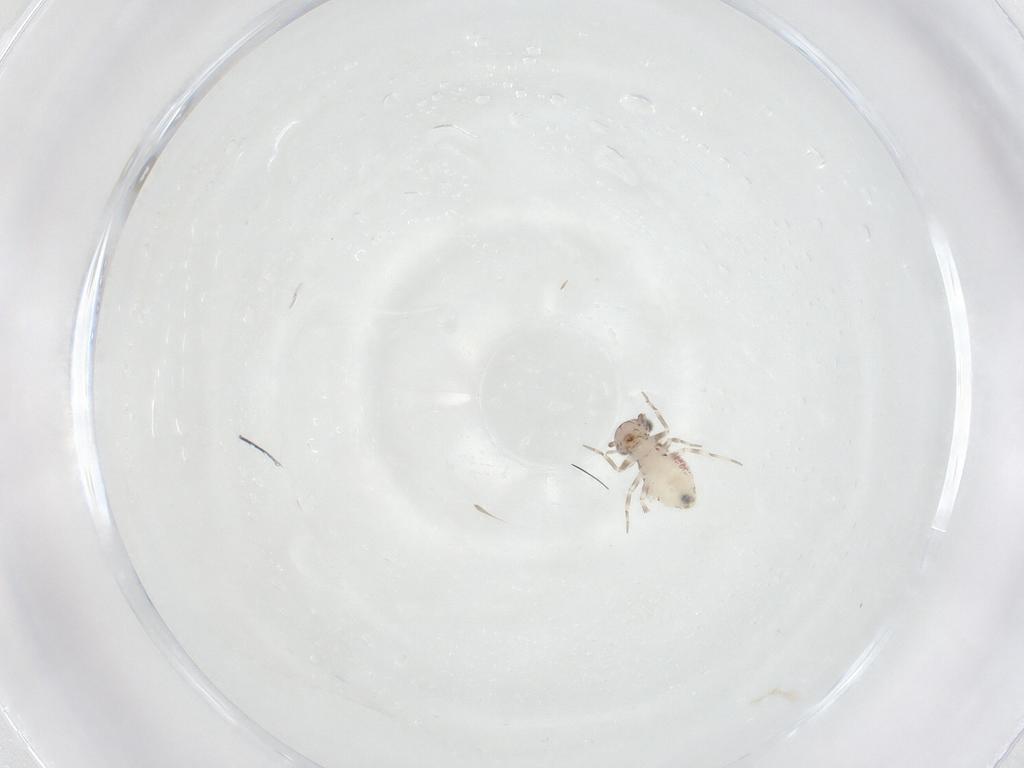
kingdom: Animalia
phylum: Arthropoda
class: Insecta
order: Psocodea
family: Amphientomidae
